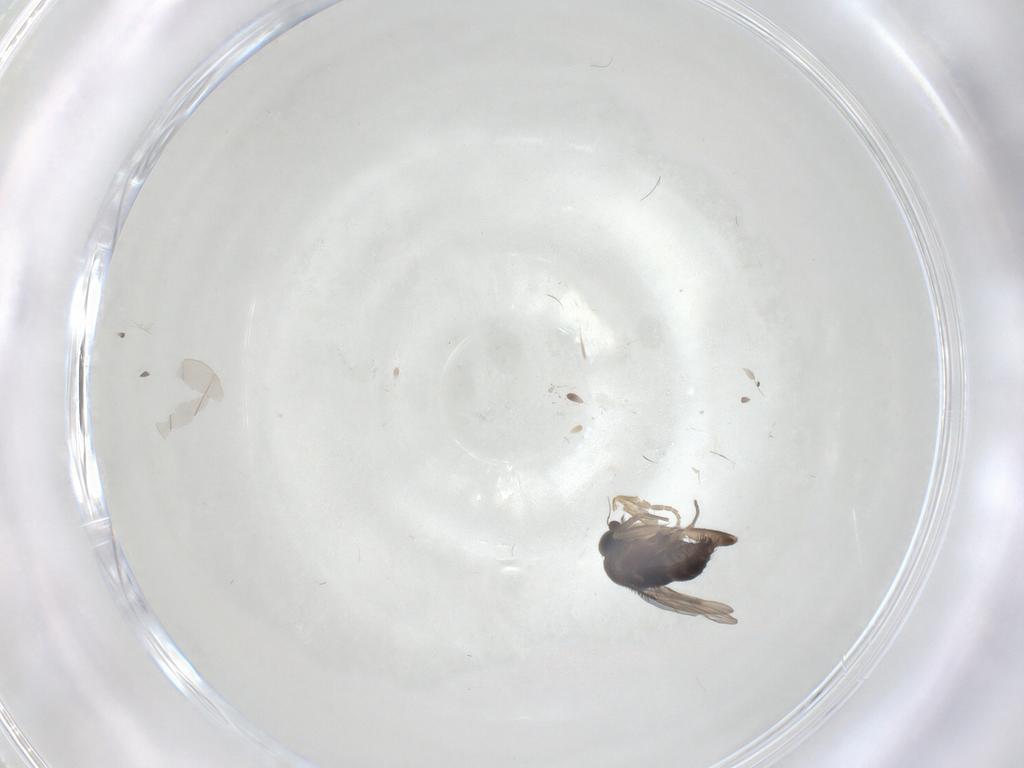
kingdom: Animalia
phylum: Arthropoda
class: Insecta
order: Diptera
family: Phoridae
